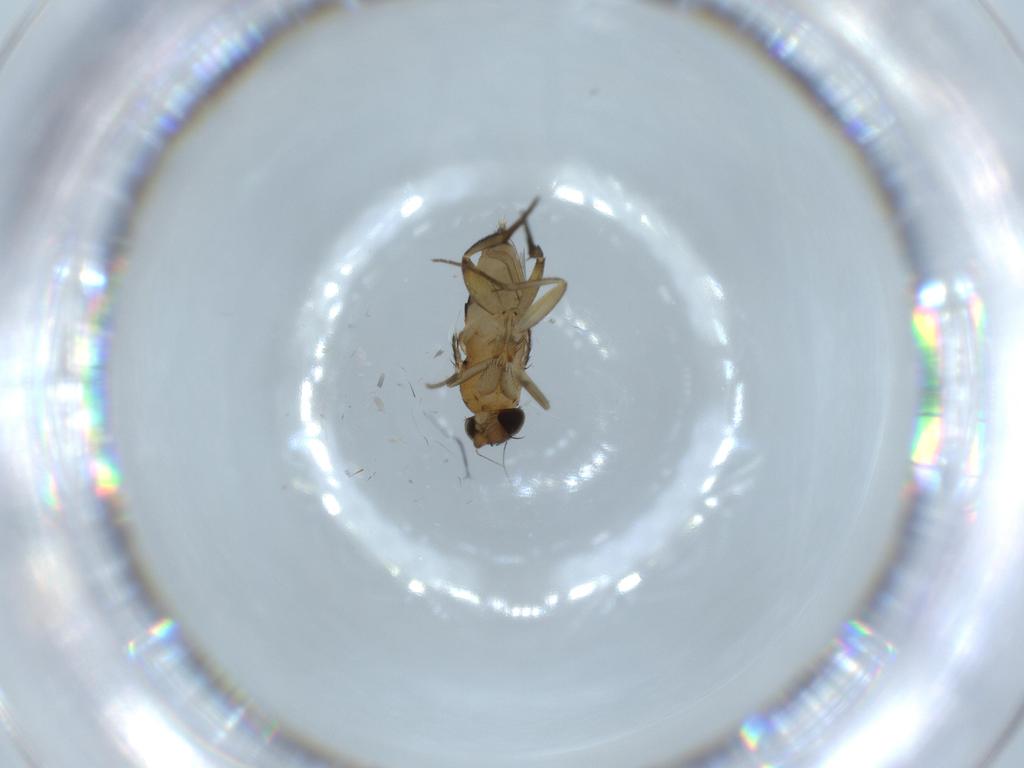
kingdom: Animalia
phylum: Arthropoda
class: Insecta
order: Diptera
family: Phoridae
